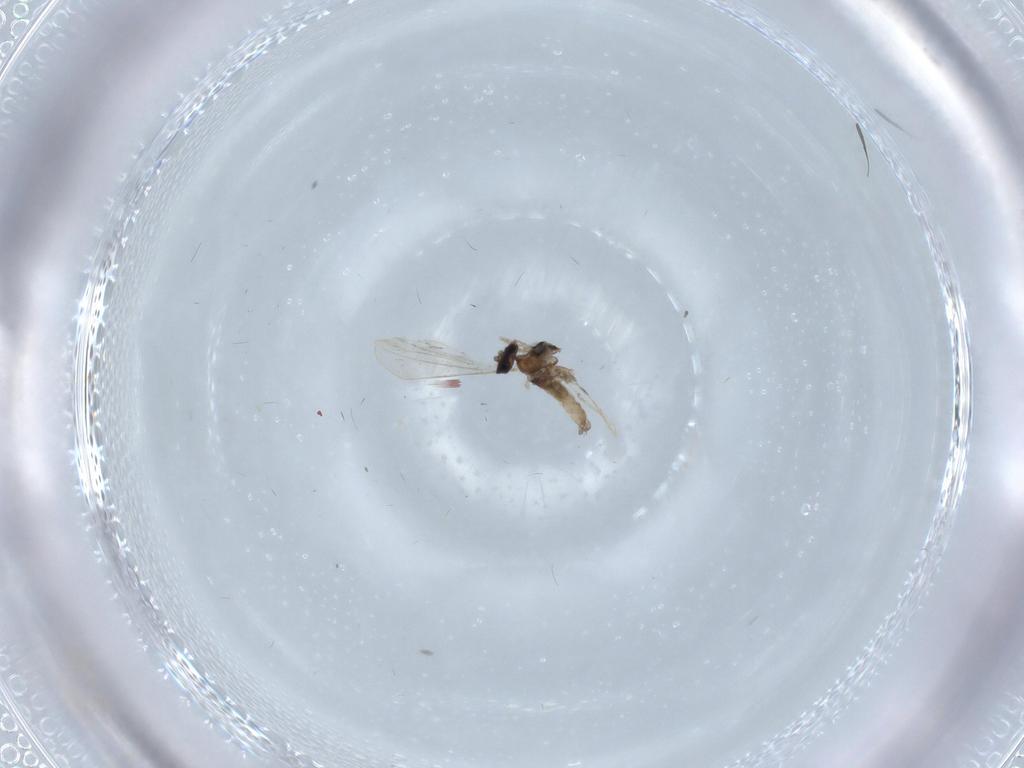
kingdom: Animalia
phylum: Arthropoda
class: Insecta
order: Diptera
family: Cecidomyiidae
